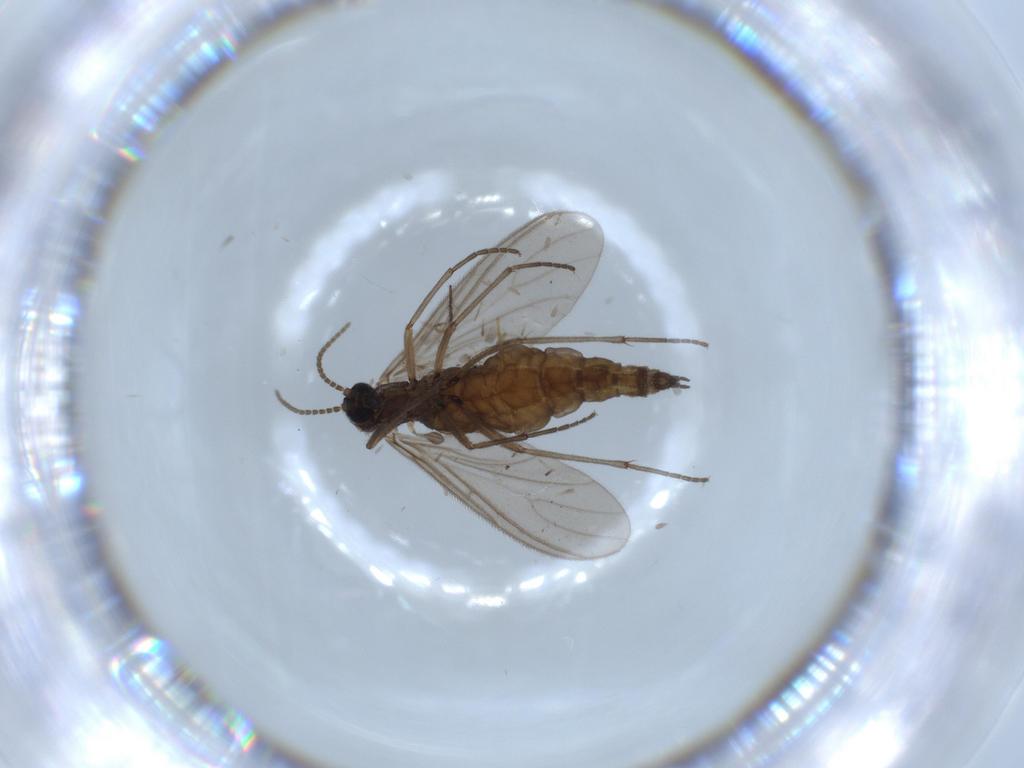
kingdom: Animalia
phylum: Arthropoda
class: Insecta
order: Diptera
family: Sciaridae
